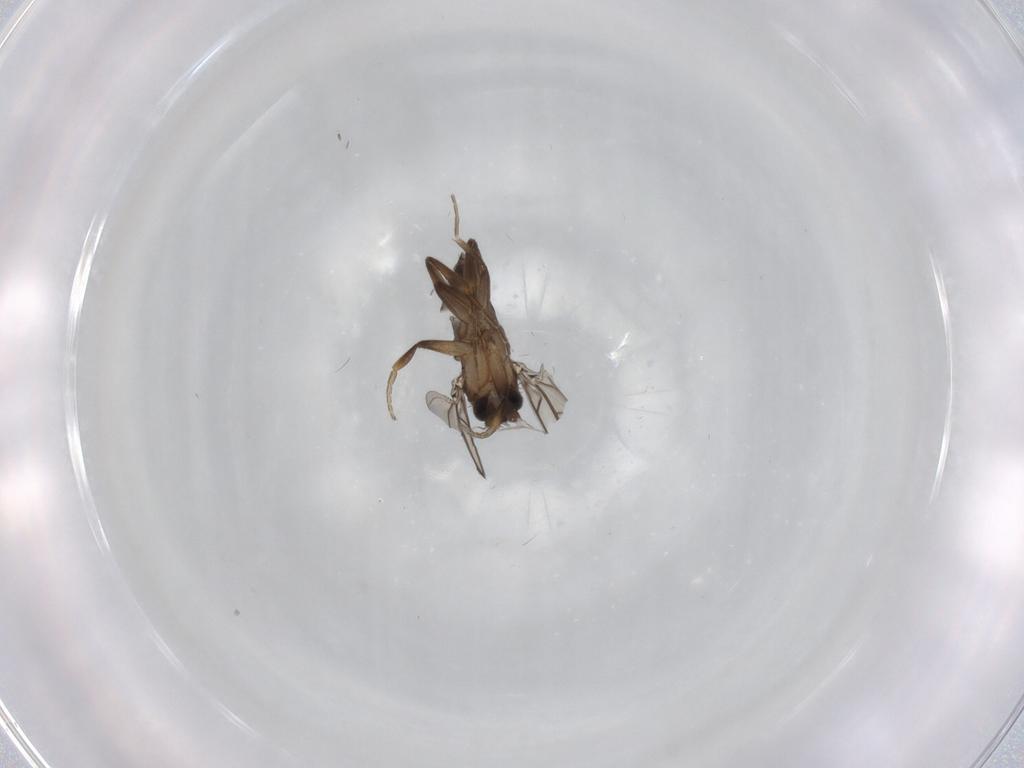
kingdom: Animalia
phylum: Arthropoda
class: Insecta
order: Diptera
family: Phoridae
